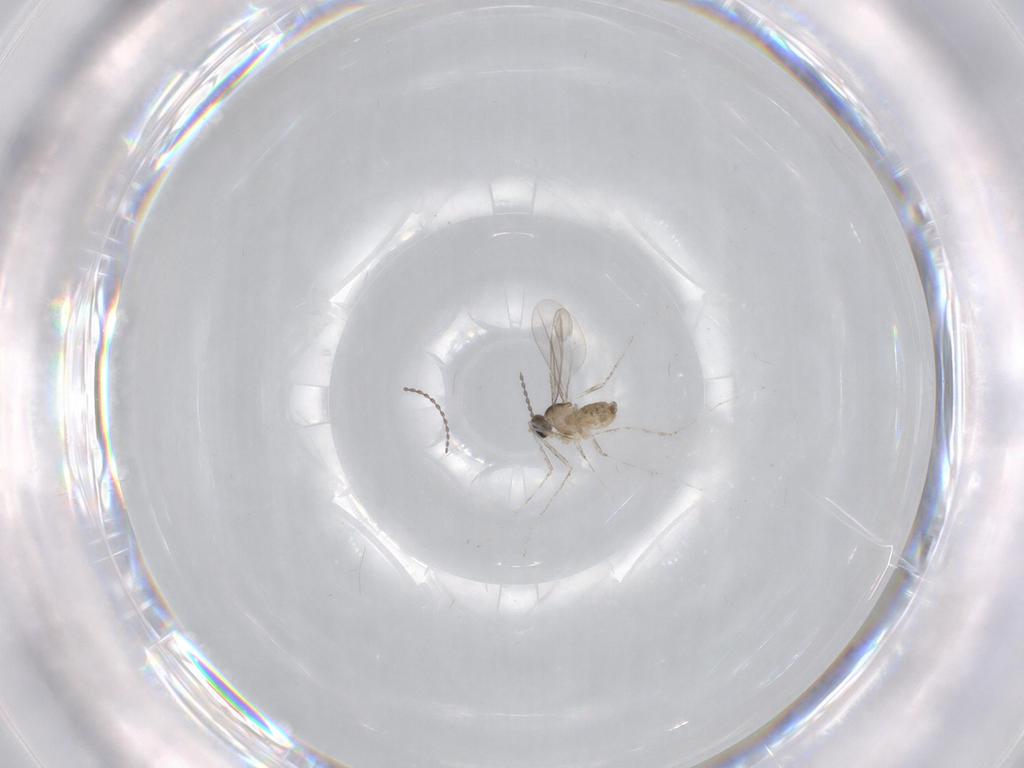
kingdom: Animalia
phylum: Arthropoda
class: Insecta
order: Diptera
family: Cecidomyiidae
